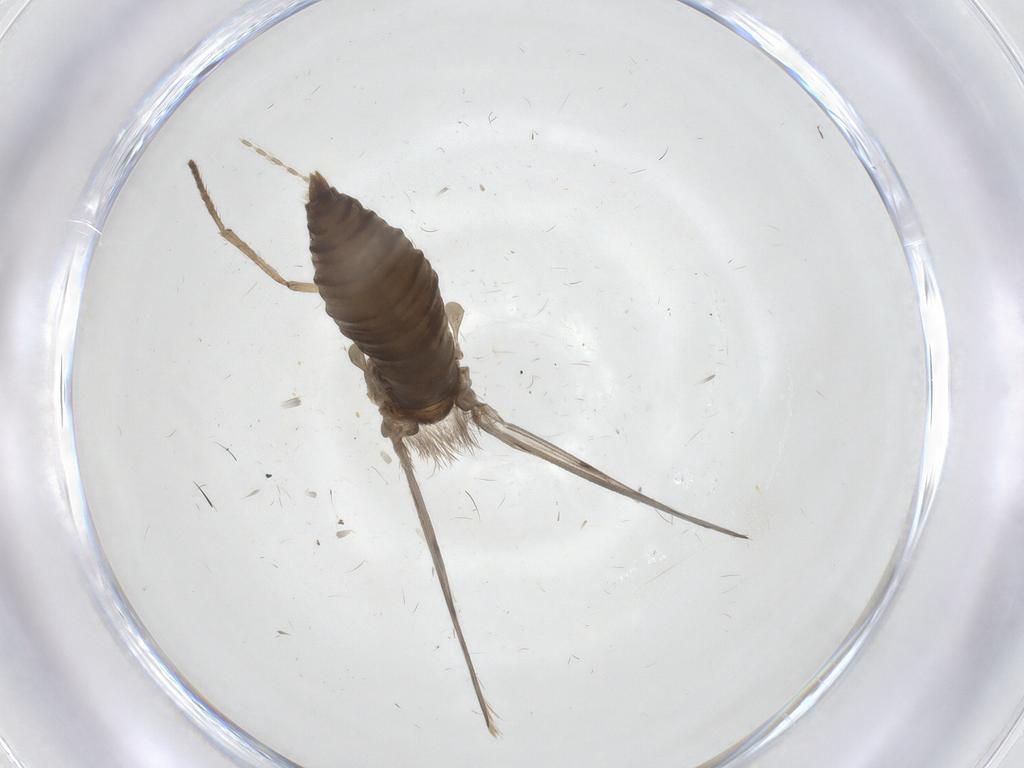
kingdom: Animalia
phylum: Arthropoda
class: Insecta
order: Diptera
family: Psychodidae
